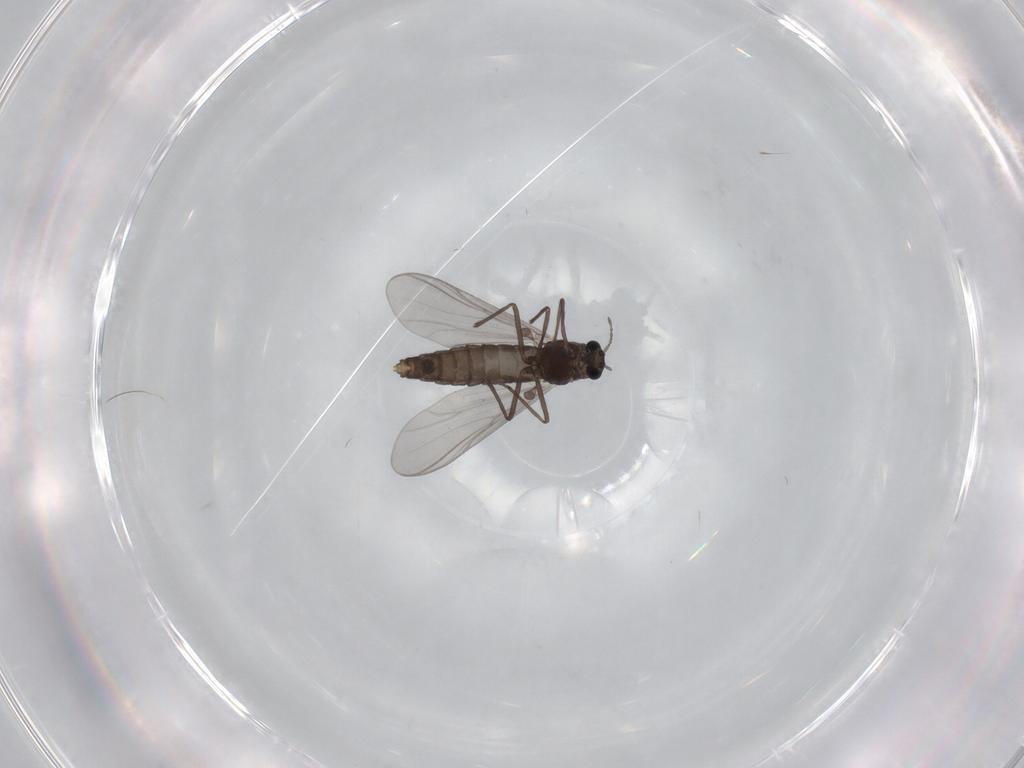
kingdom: Animalia
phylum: Arthropoda
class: Insecta
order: Diptera
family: Chironomidae
